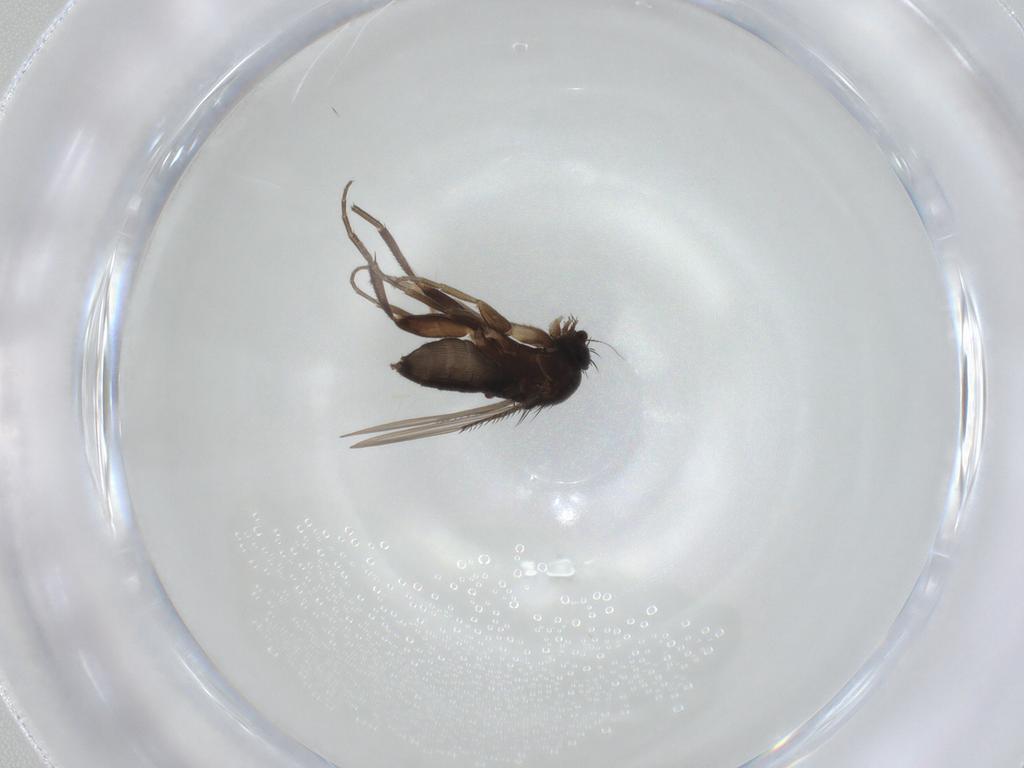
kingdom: Animalia
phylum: Arthropoda
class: Insecta
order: Diptera
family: Phoridae
